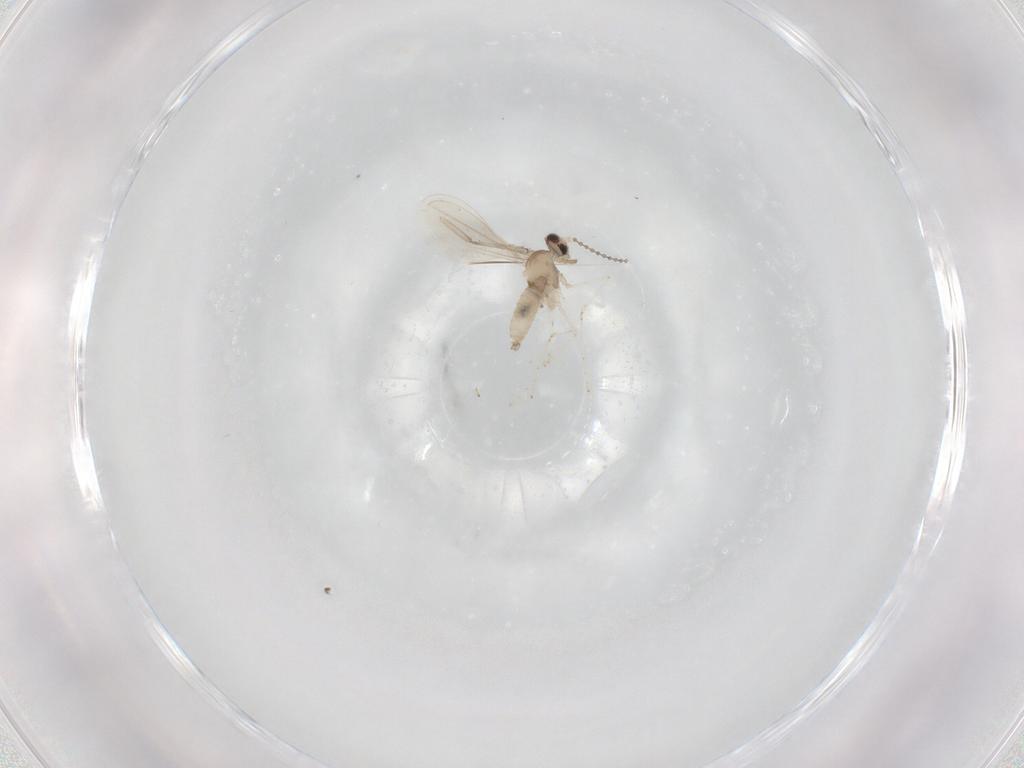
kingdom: Animalia
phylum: Arthropoda
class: Insecta
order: Diptera
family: Psychodidae
